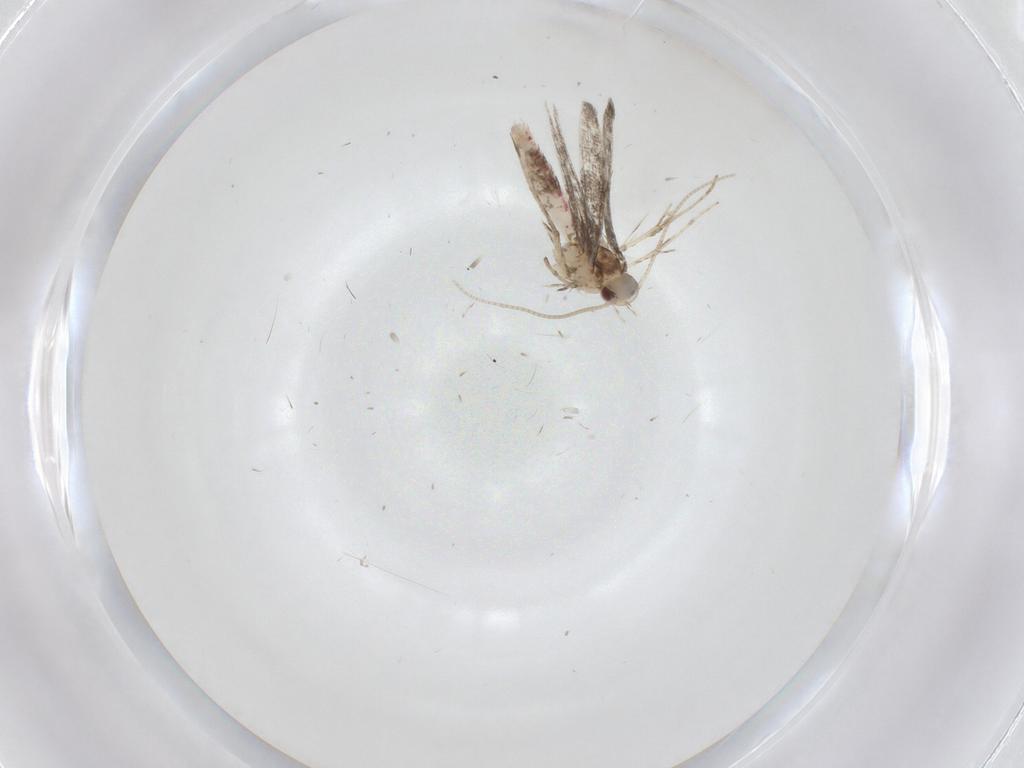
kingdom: Animalia
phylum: Arthropoda
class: Insecta
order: Lepidoptera
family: Gracillariidae
